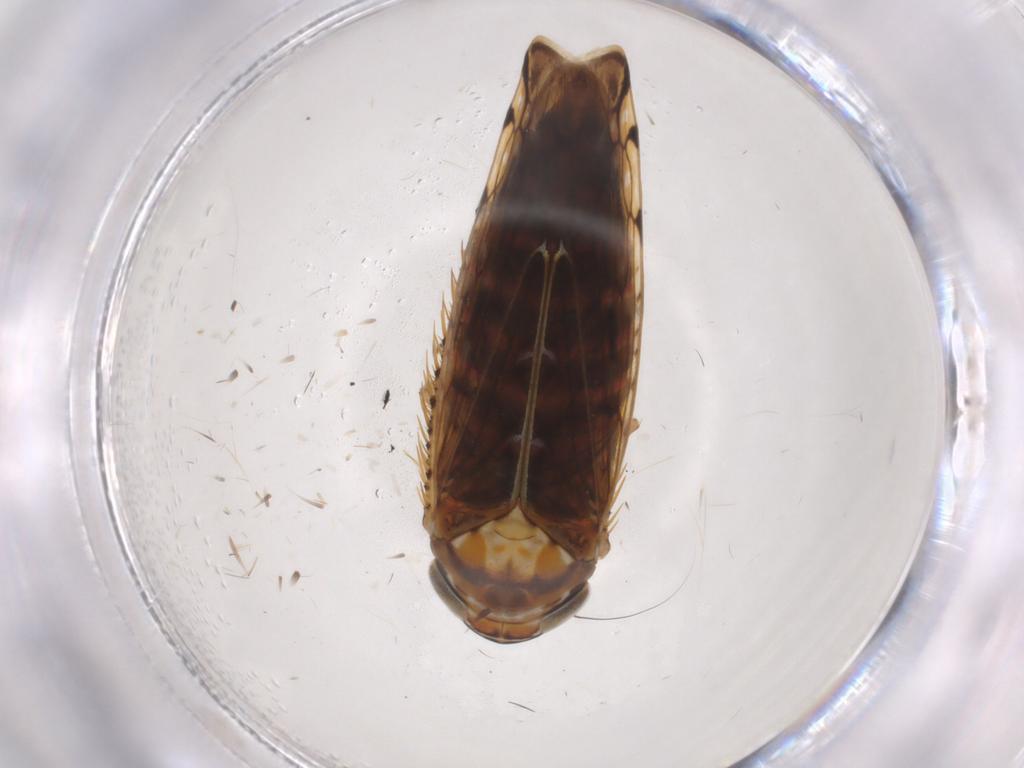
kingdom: Animalia
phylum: Arthropoda
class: Insecta
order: Hemiptera
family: Cicadellidae
